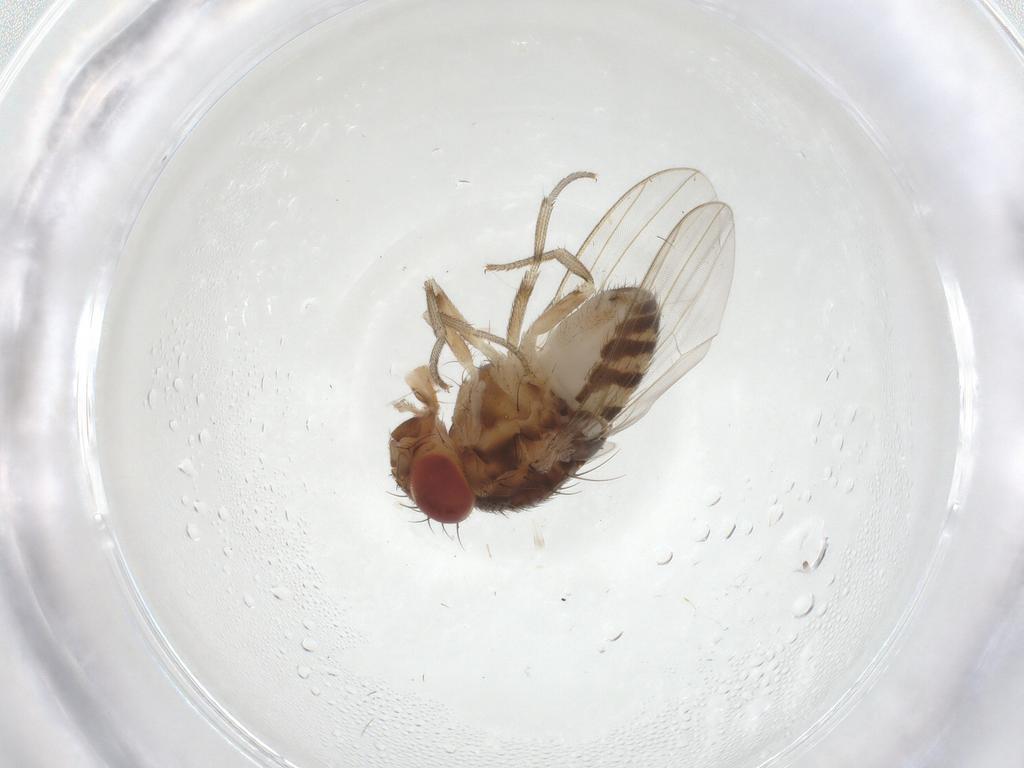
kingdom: Animalia
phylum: Arthropoda
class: Insecta
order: Diptera
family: Drosophilidae
